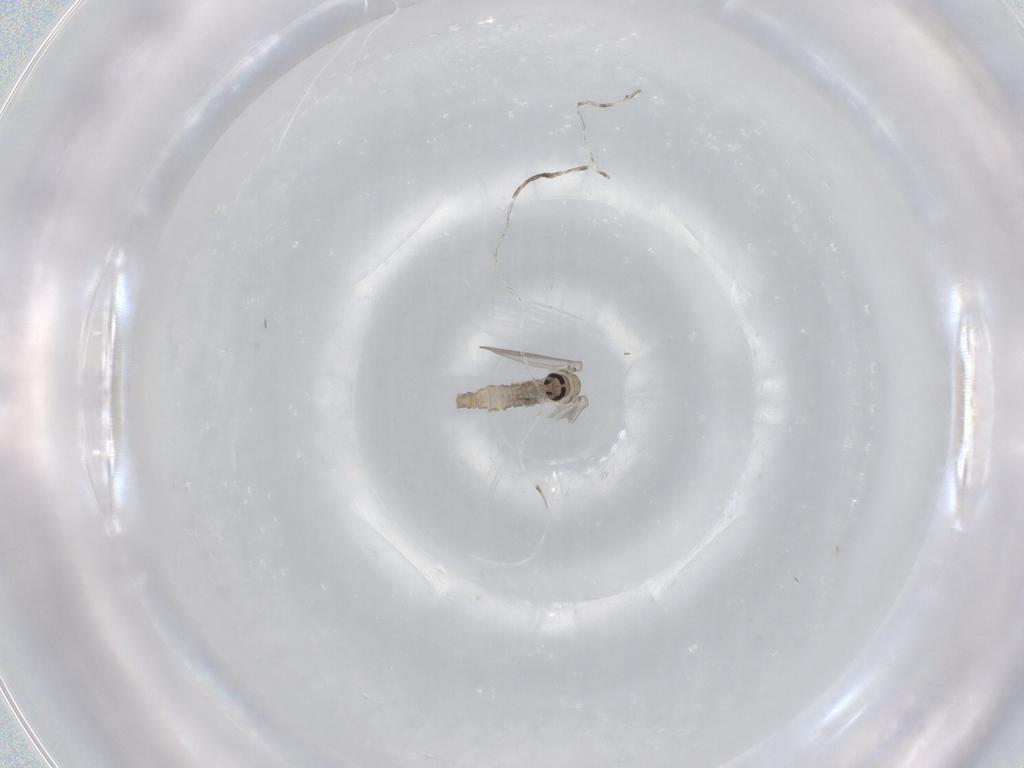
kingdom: Animalia
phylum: Arthropoda
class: Insecta
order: Diptera
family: Psychodidae
